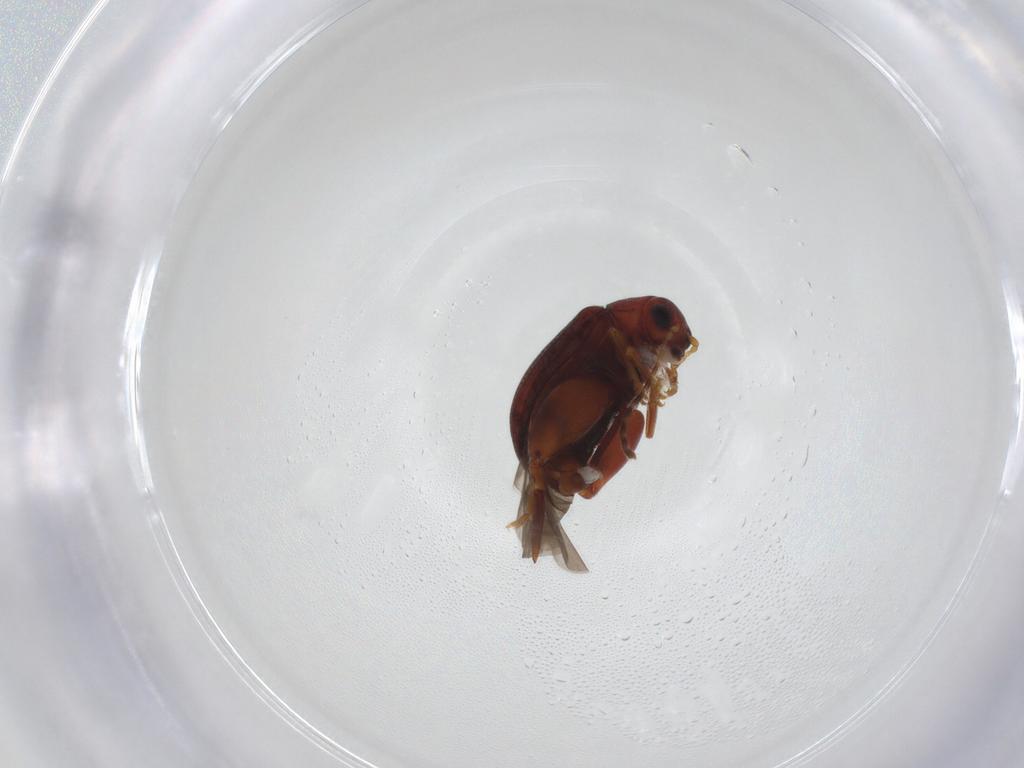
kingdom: Animalia
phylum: Arthropoda
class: Insecta
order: Coleoptera
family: Chrysomelidae
